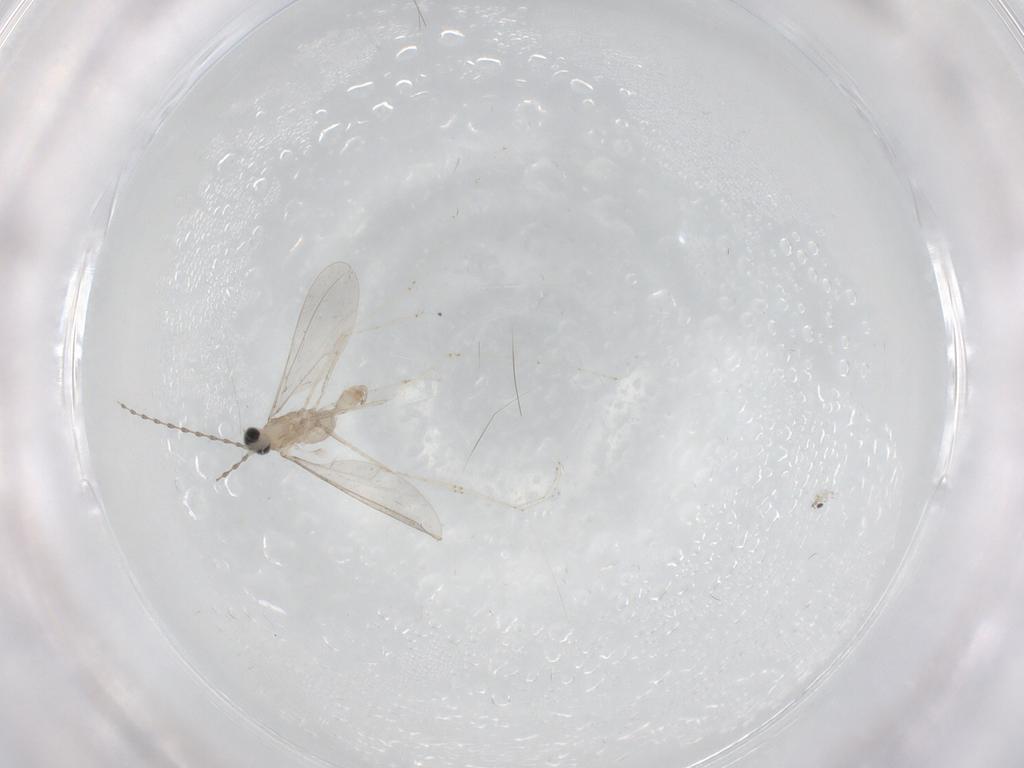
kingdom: Animalia
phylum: Arthropoda
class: Insecta
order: Diptera
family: Cecidomyiidae
